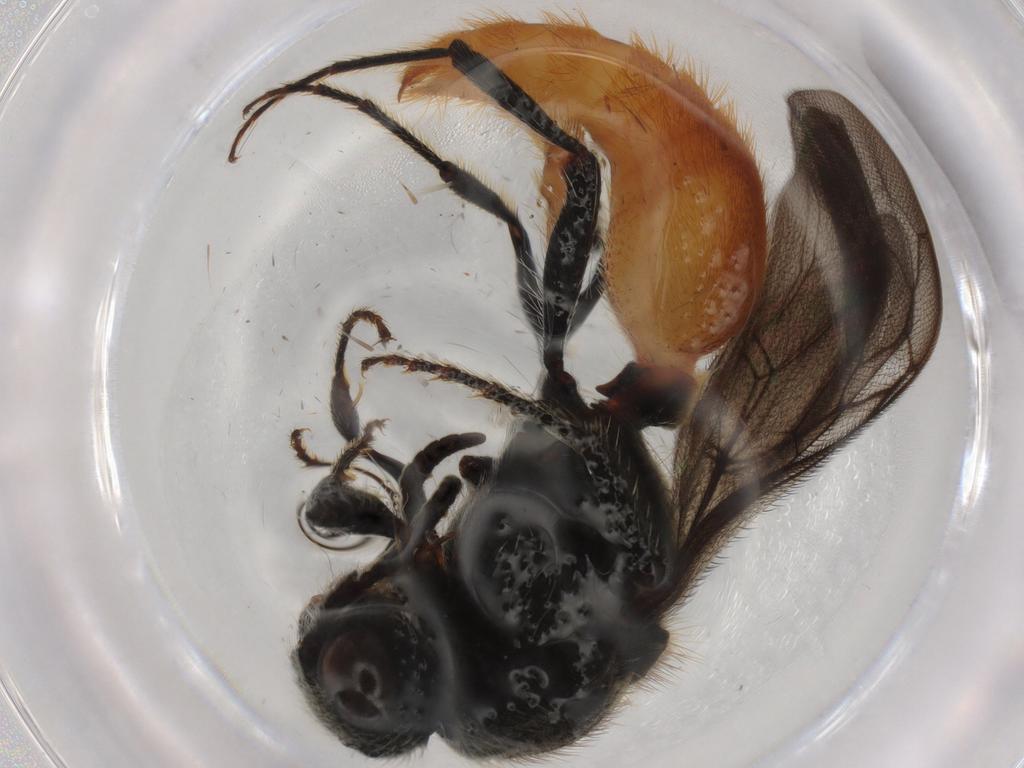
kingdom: Animalia
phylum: Arthropoda
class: Insecta
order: Hymenoptera
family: Mutillidae
